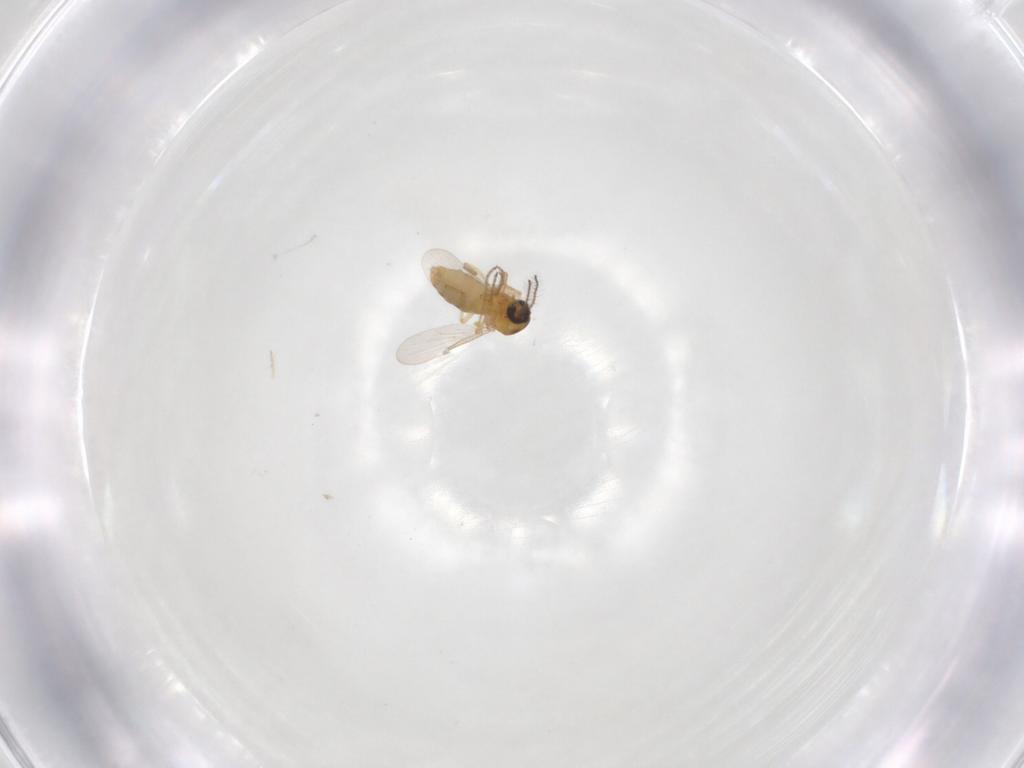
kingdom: Animalia
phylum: Arthropoda
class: Insecta
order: Diptera
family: Ceratopogonidae
